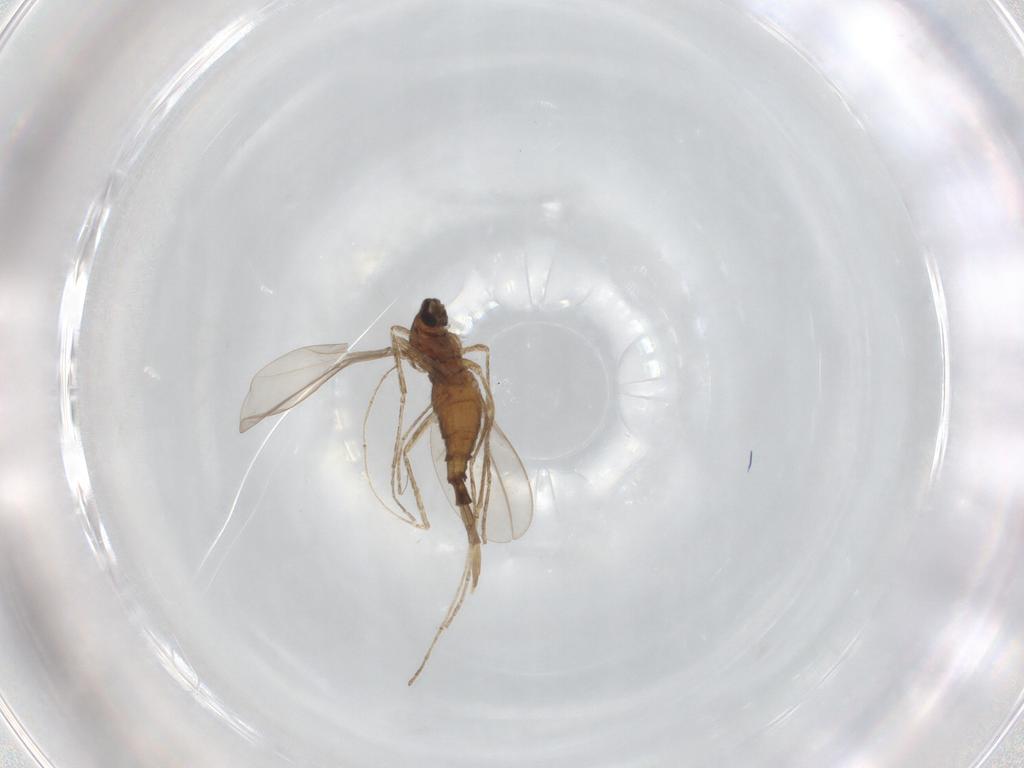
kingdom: Animalia
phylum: Arthropoda
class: Insecta
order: Diptera
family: Cecidomyiidae
